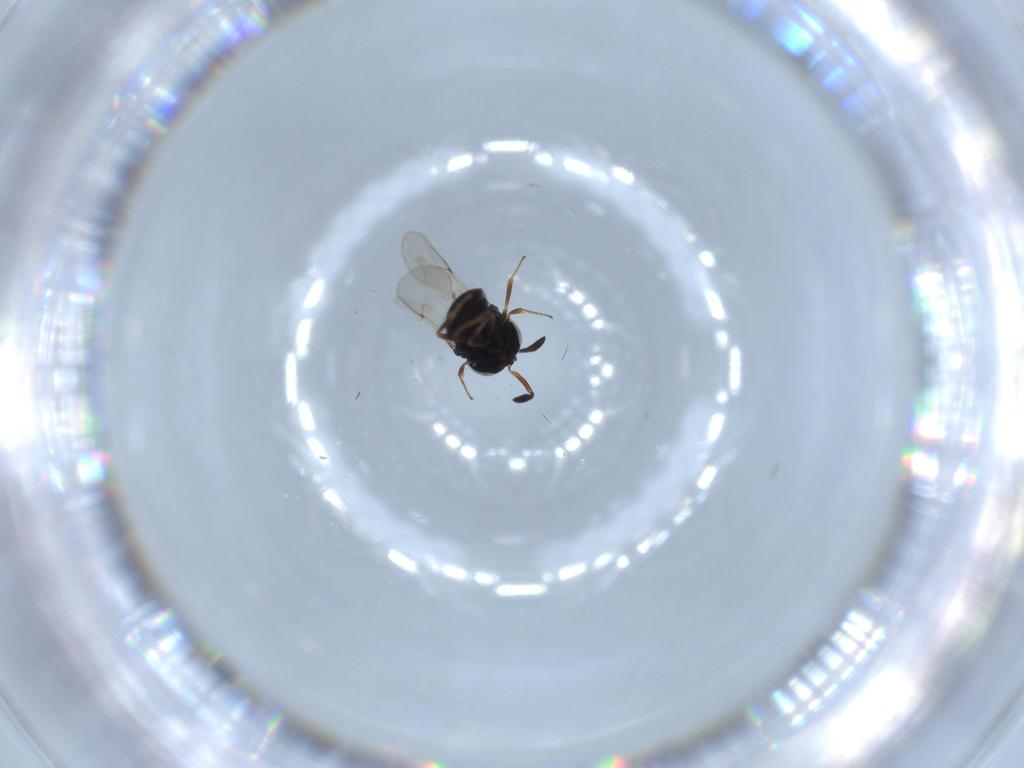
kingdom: Animalia
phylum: Arthropoda
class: Insecta
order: Hymenoptera
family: Scelionidae
